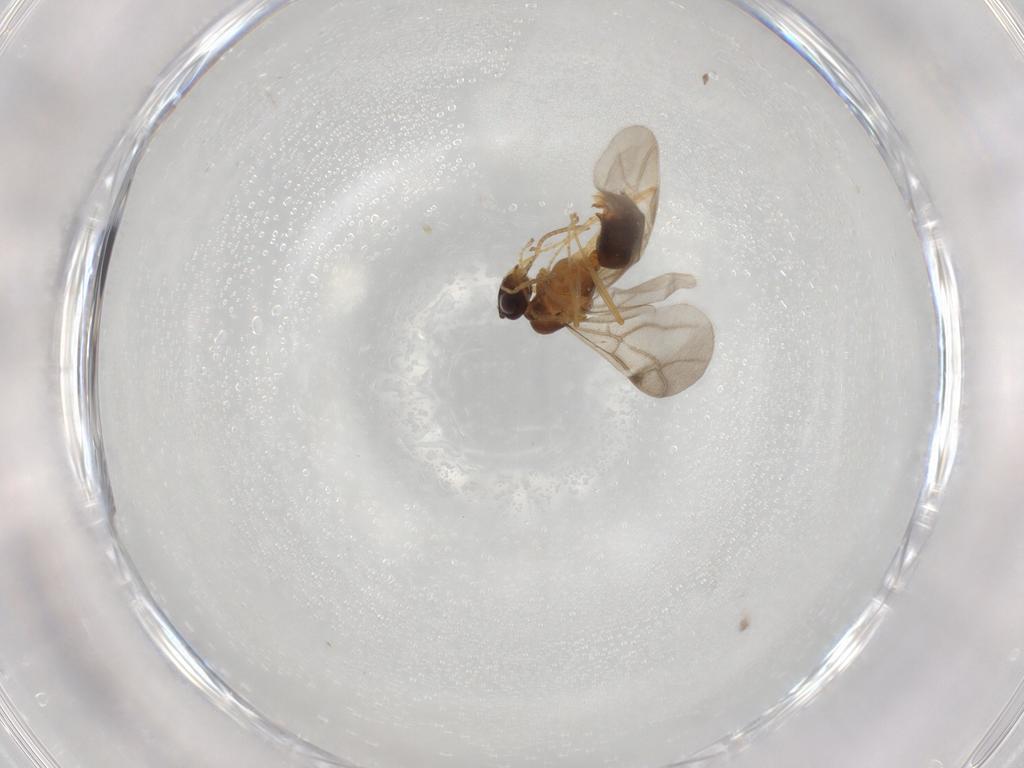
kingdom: Animalia
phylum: Arthropoda
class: Insecta
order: Hymenoptera
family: Formicidae
